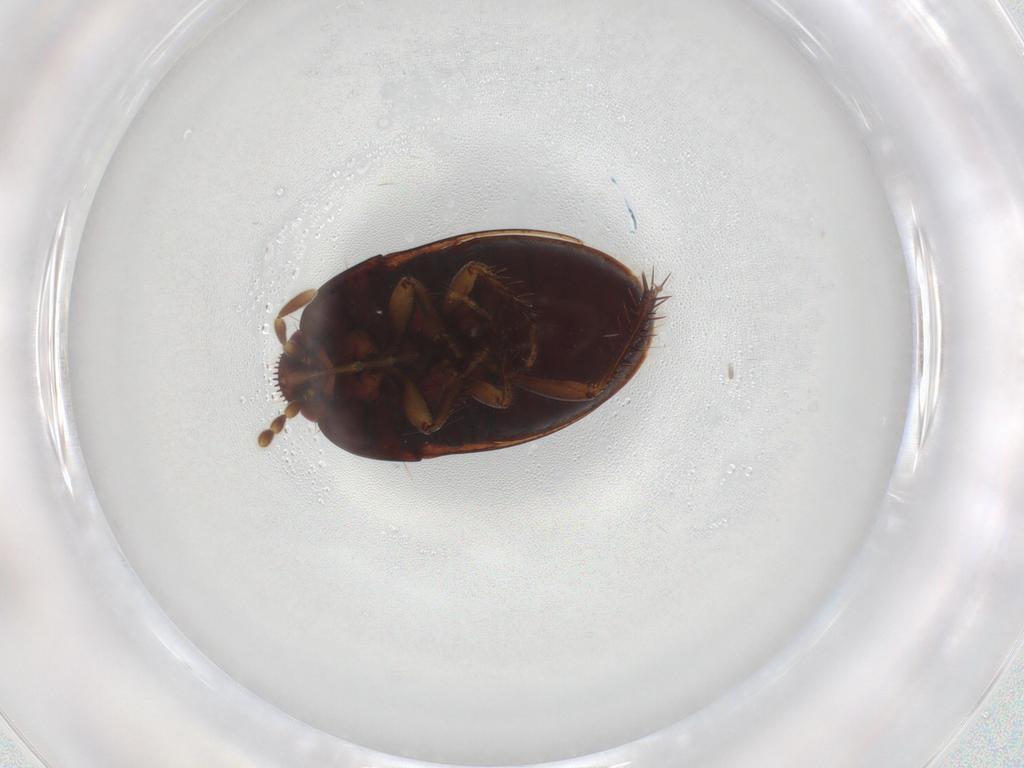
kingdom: Animalia
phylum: Arthropoda
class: Insecta
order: Hemiptera
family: Cydnidae
